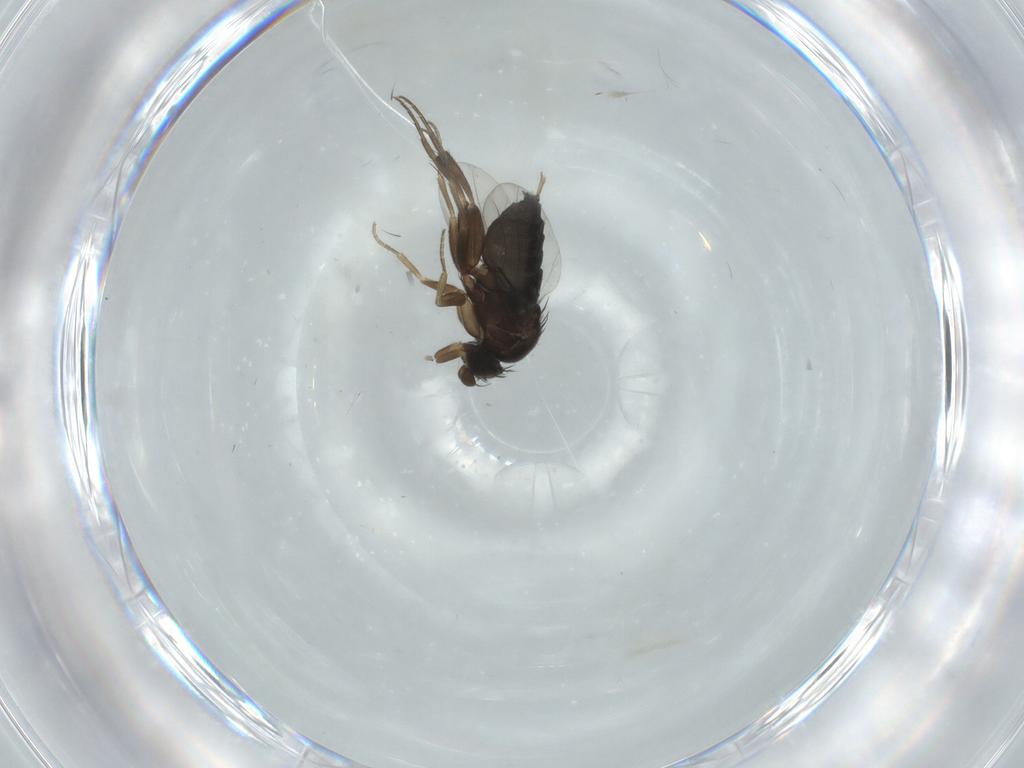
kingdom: Animalia
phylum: Arthropoda
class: Insecta
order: Diptera
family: Phoridae
